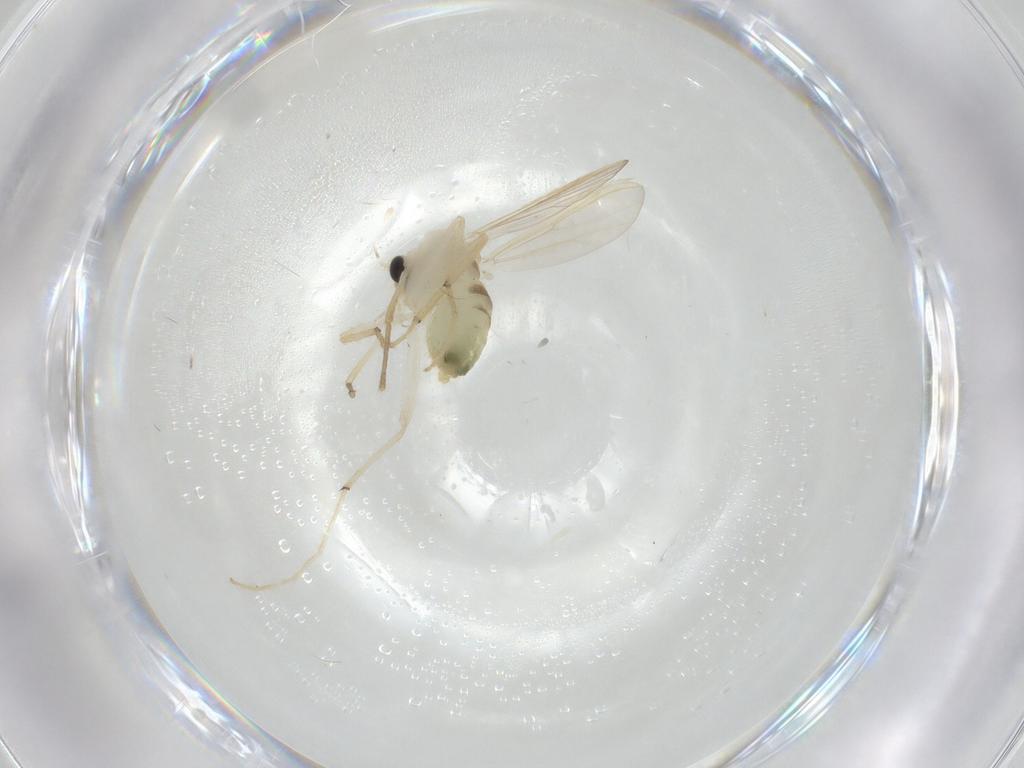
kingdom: Animalia
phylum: Arthropoda
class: Insecta
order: Diptera
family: Chironomidae
